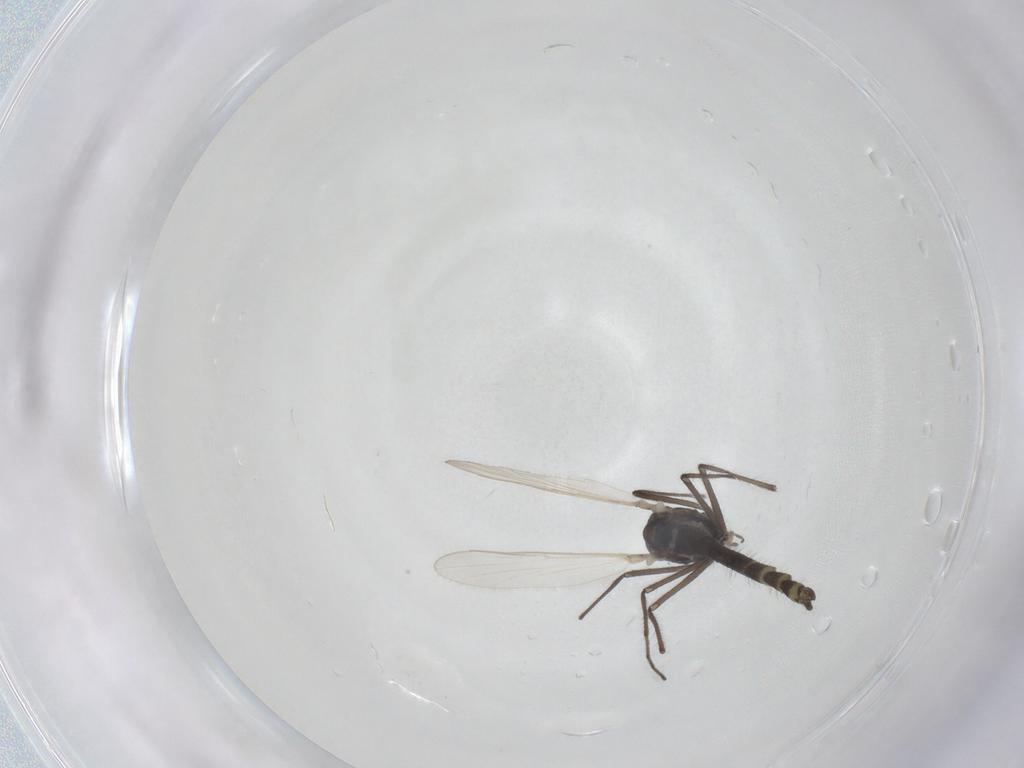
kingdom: Animalia
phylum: Arthropoda
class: Insecta
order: Diptera
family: Chironomidae
